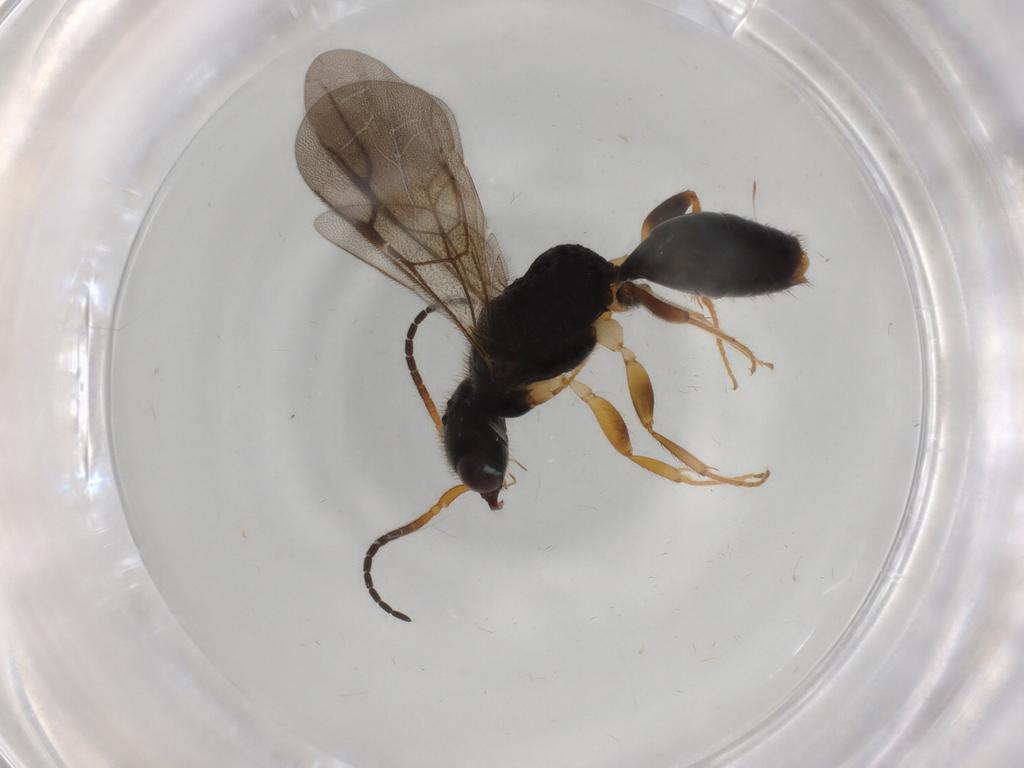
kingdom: Animalia
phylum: Arthropoda
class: Insecta
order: Hymenoptera
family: Bethylidae
